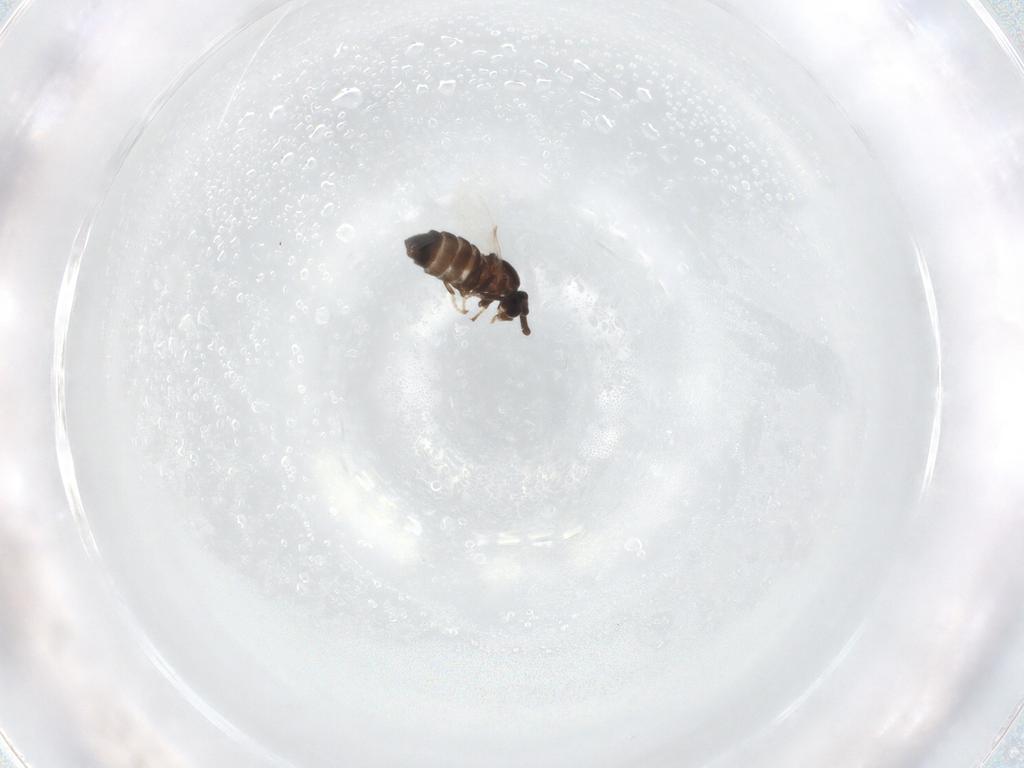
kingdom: Animalia
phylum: Arthropoda
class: Insecta
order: Diptera
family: Scatopsidae
